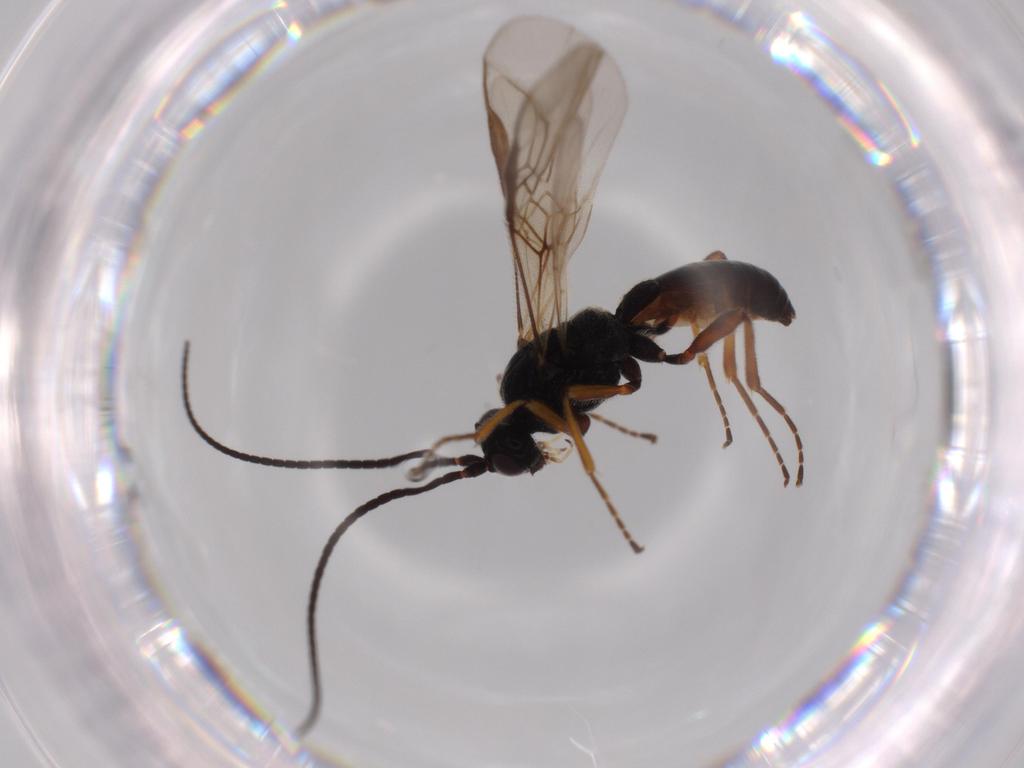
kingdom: Animalia
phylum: Arthropoda
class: Insecta
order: Hymenoptera
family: Braconidae
